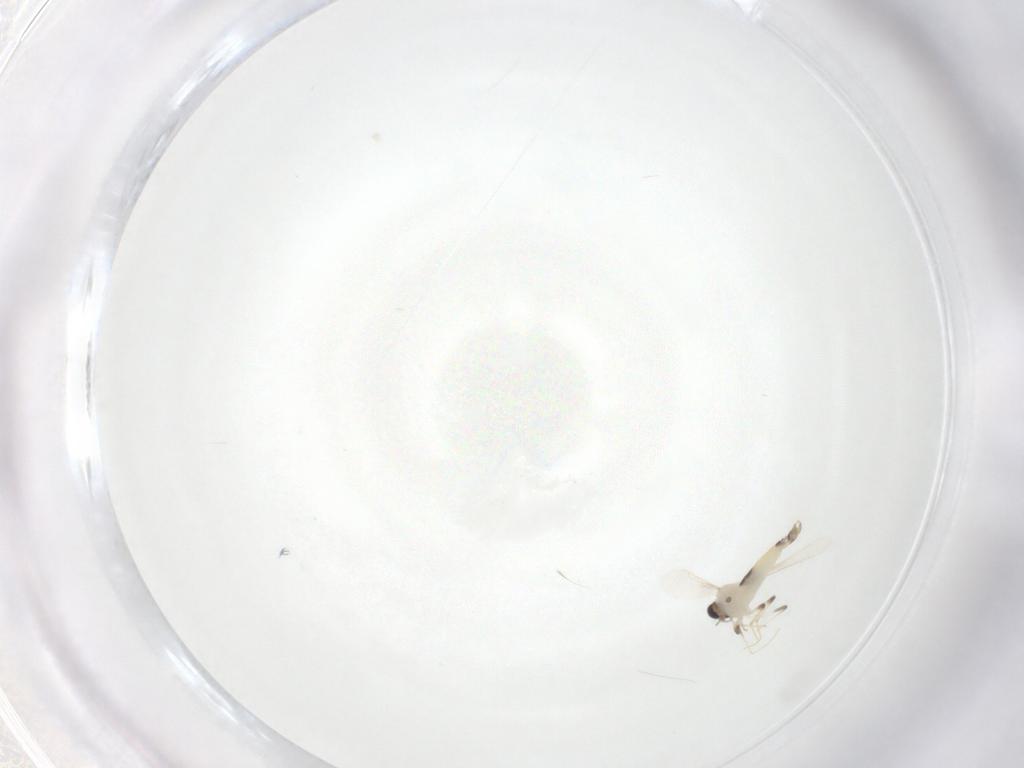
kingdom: Animalia
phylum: Arthropoda
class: Insecta
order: Diptera
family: Chironomidae
